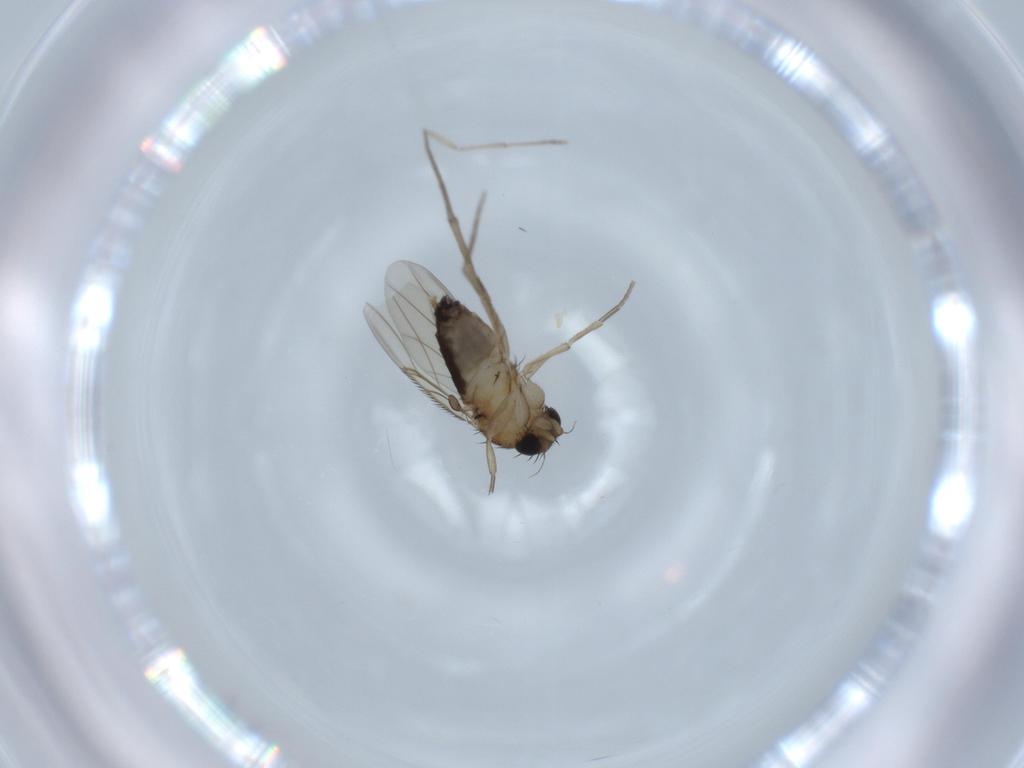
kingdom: Animalia
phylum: Arthropoda
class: Insecta
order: Diptera
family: Phoridae
